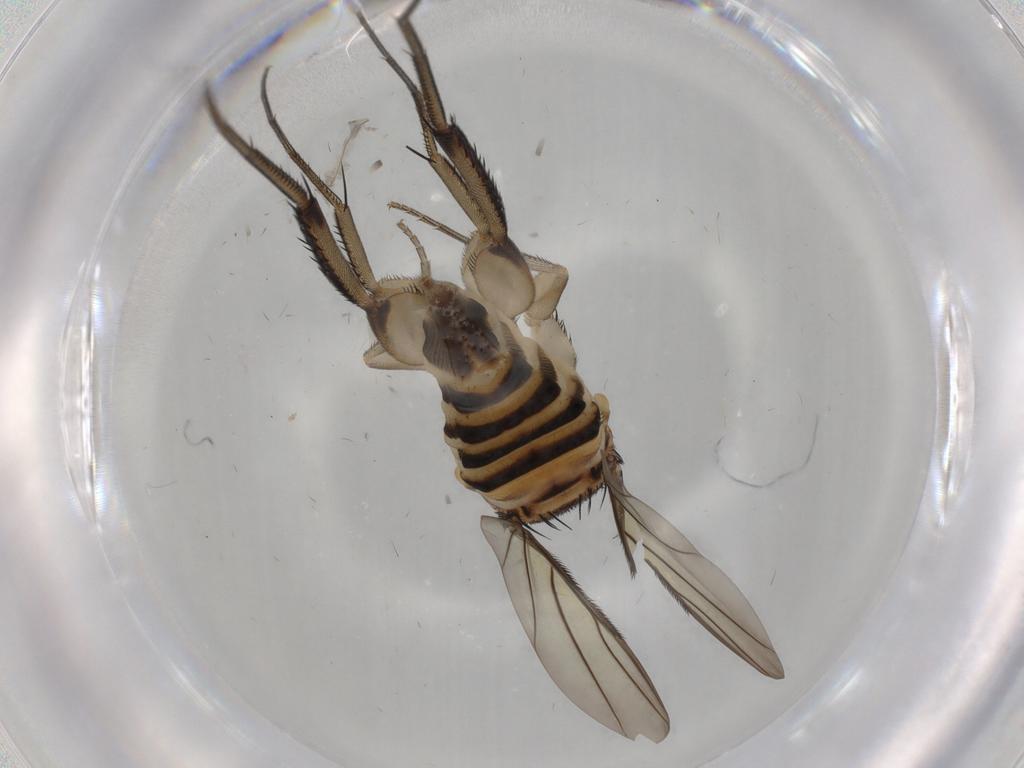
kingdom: Animalia
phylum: Arthropoda
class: Insecta
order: Diptera
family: Phoridae
